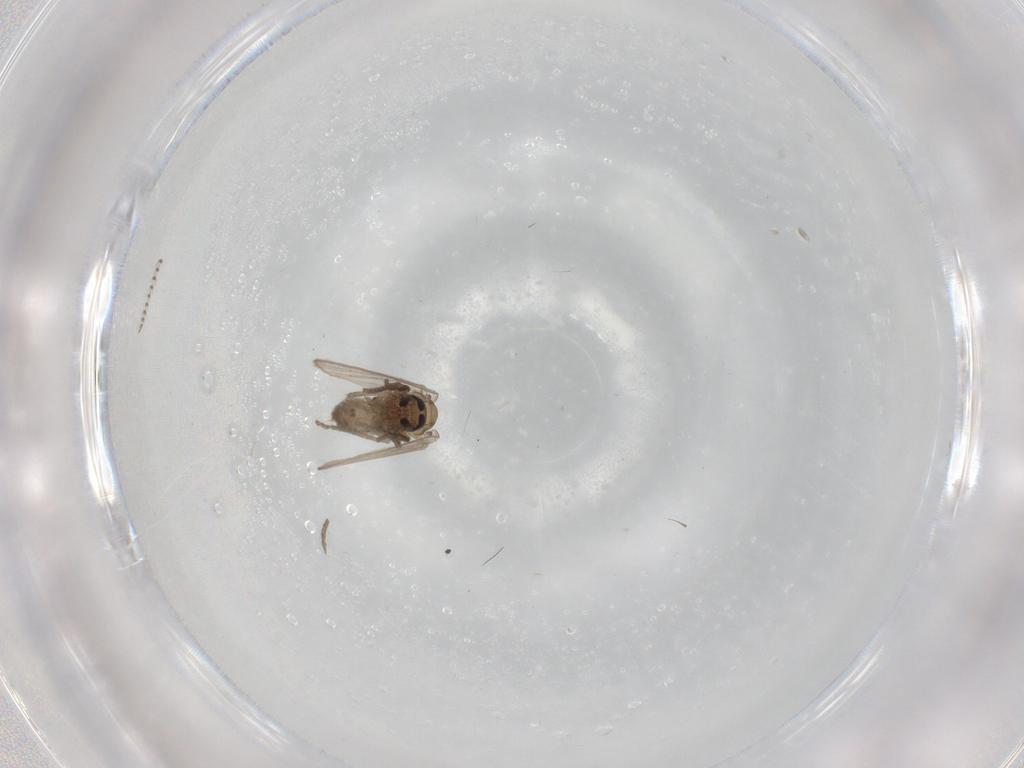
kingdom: Animalia
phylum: Arthropoda
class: Insecta
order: Diptera
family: Psychodidae
